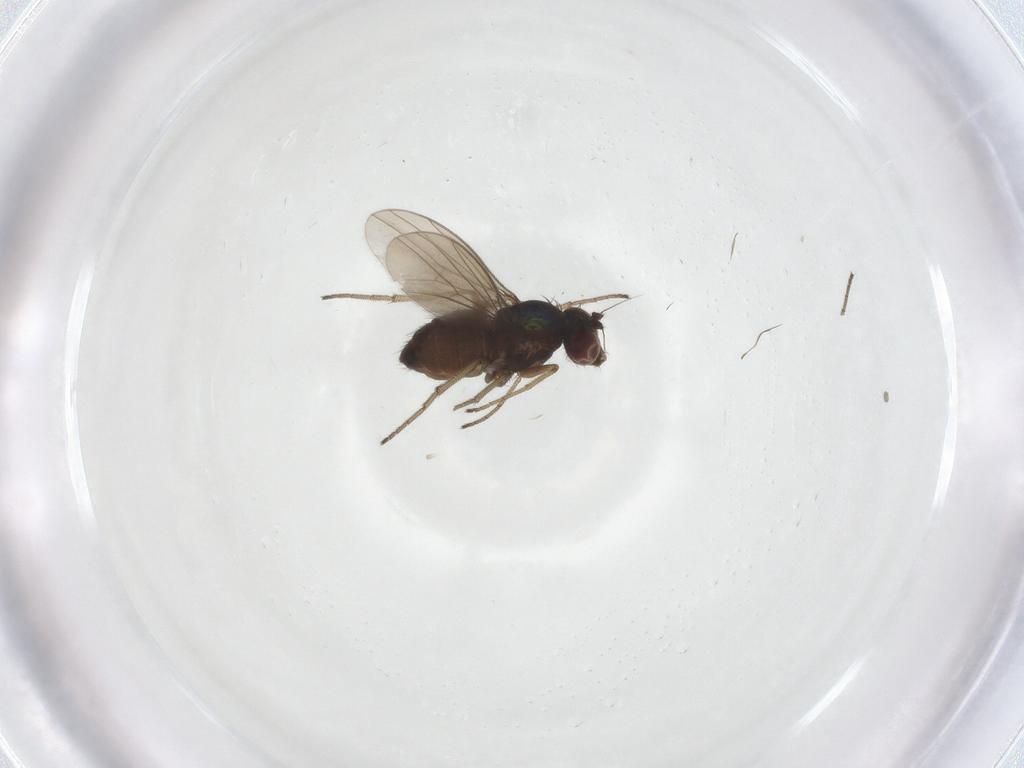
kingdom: Animalia
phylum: Arthropoda
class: Insecta
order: Diptera
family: Dolichopodidae
